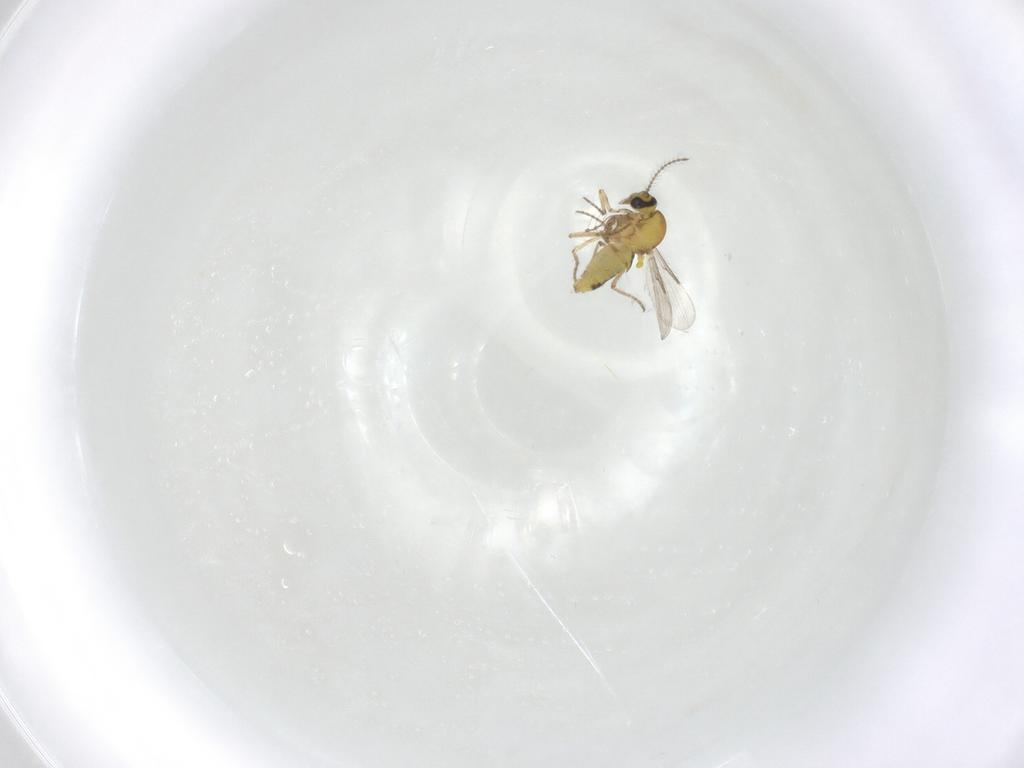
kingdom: Animalia
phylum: Arthropoda
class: Insecta
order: Diptera
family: Chironomidae
